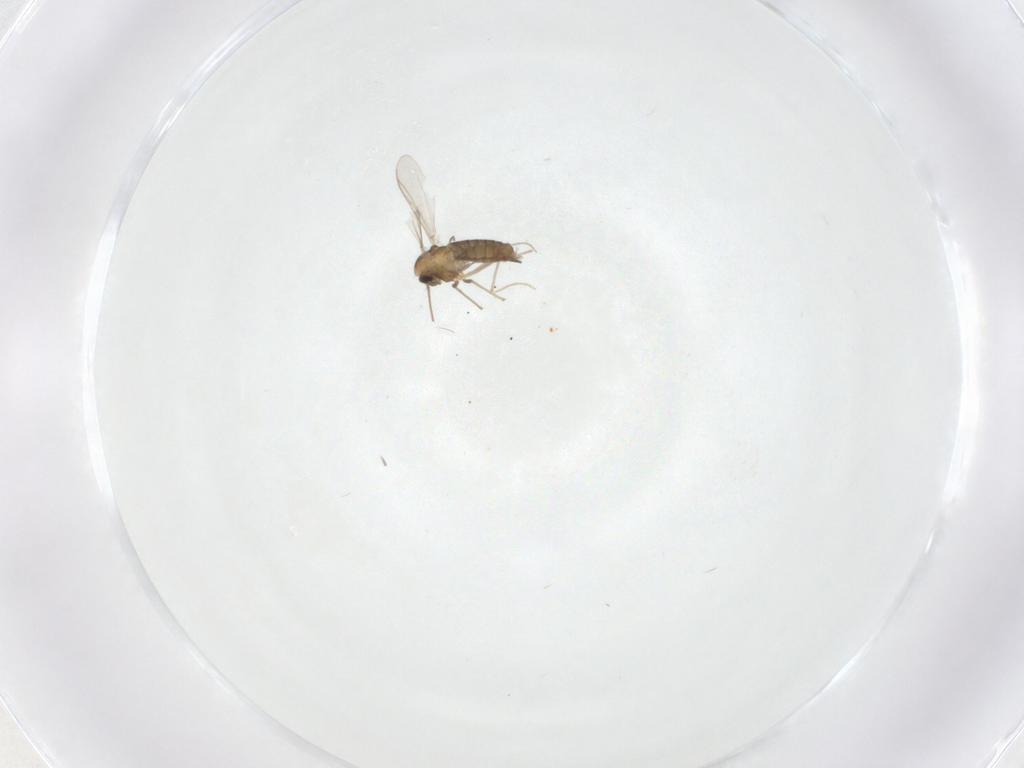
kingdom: Animalia
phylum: Arthropoda
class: Insecta
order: Diptera
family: Chironomidae
